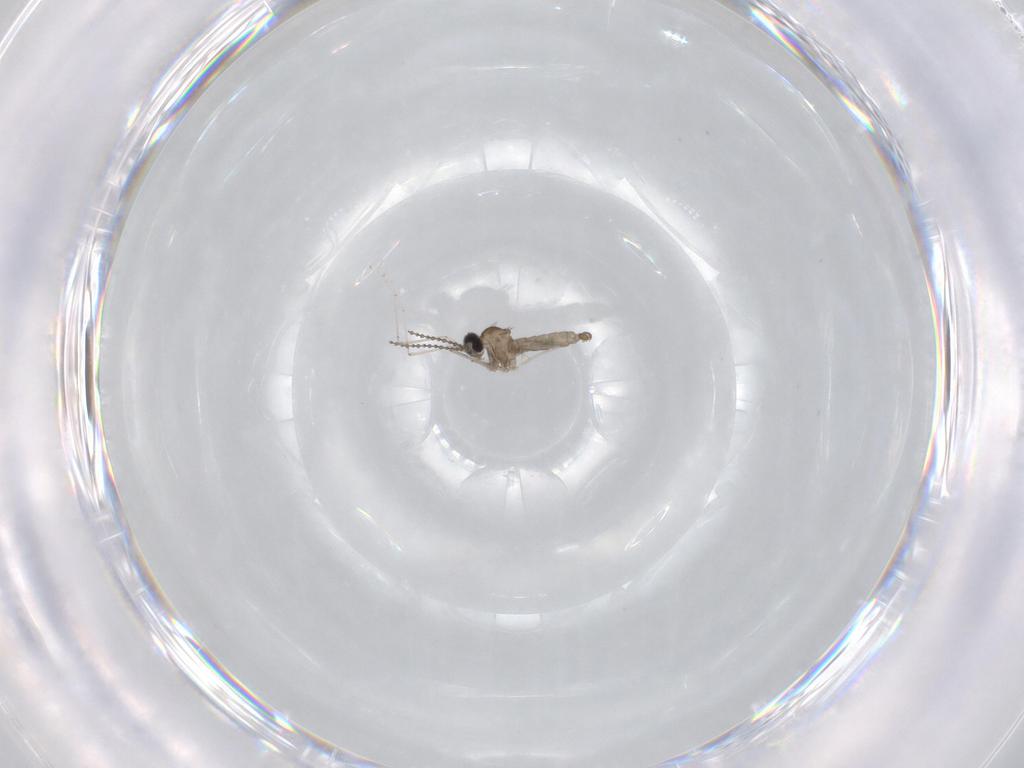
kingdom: Animalia
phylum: Arthropoda
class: Insecta
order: Diptera
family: Cecidomyiidae
